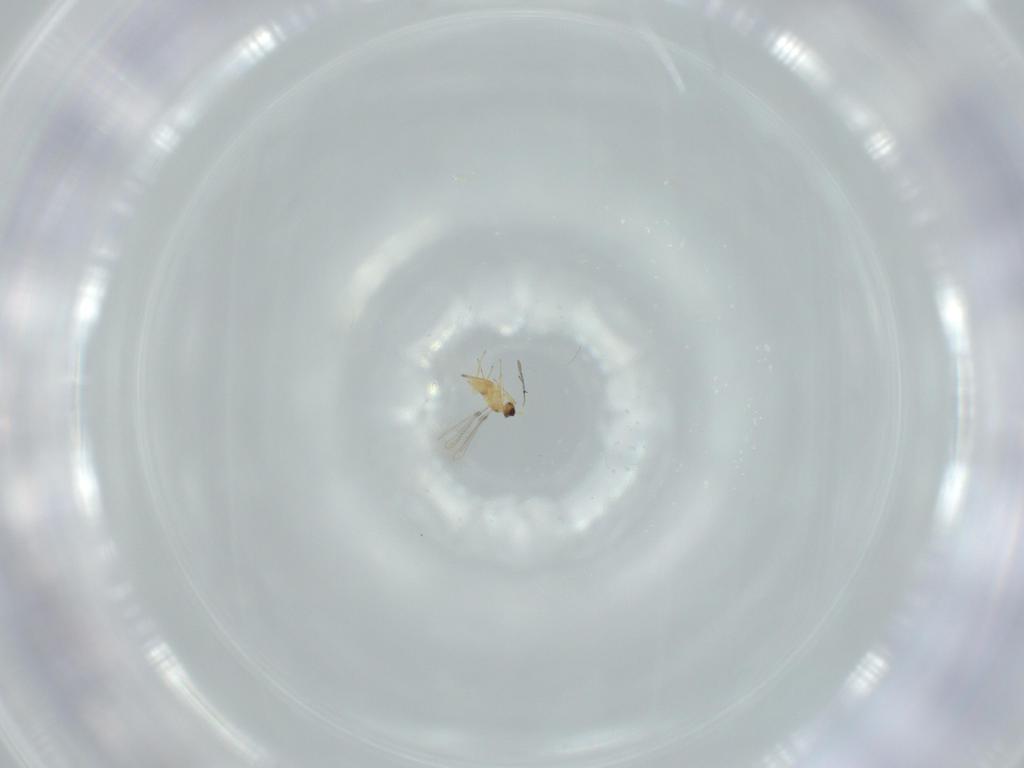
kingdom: Animalia
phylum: Arthropoda
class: Insecta
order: Hymenoptera
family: Mymaridae
